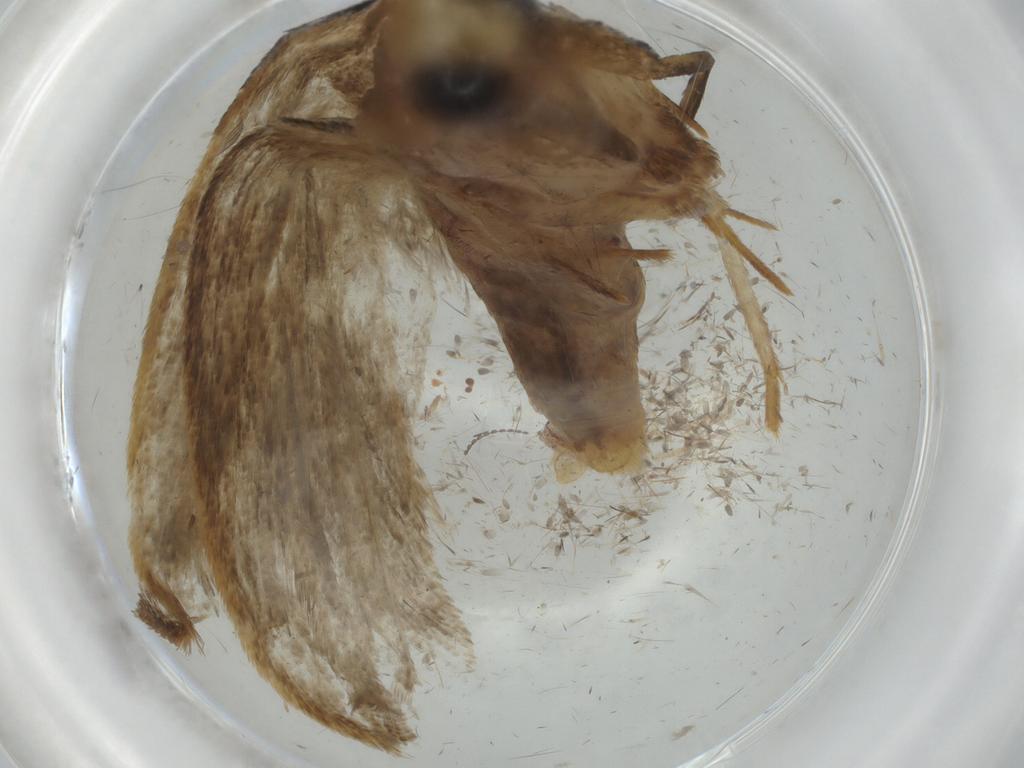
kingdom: Animalia
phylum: Arthropoda
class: Insecta
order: Lepidoptera
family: Oecophoridae
